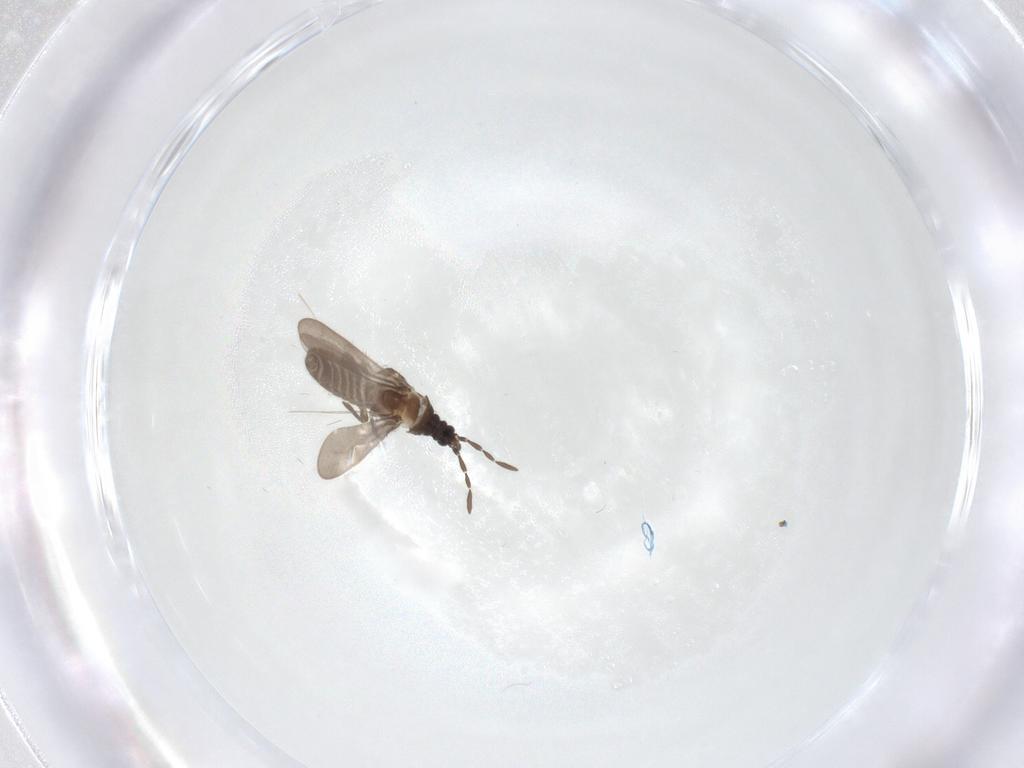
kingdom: Animalia
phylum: Arthropoda
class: Insecta
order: Hemiptera
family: Enicocephalidae
